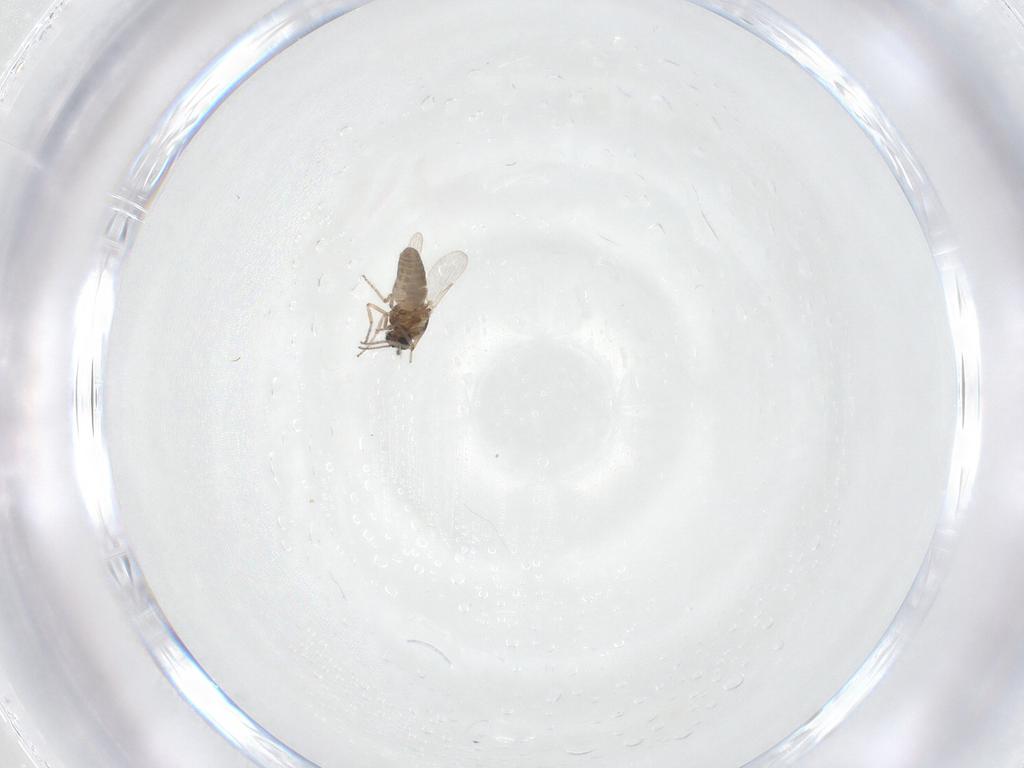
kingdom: Animalia
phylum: Arthropoda
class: Insecta
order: Diptera
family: Ceratopogonidae
